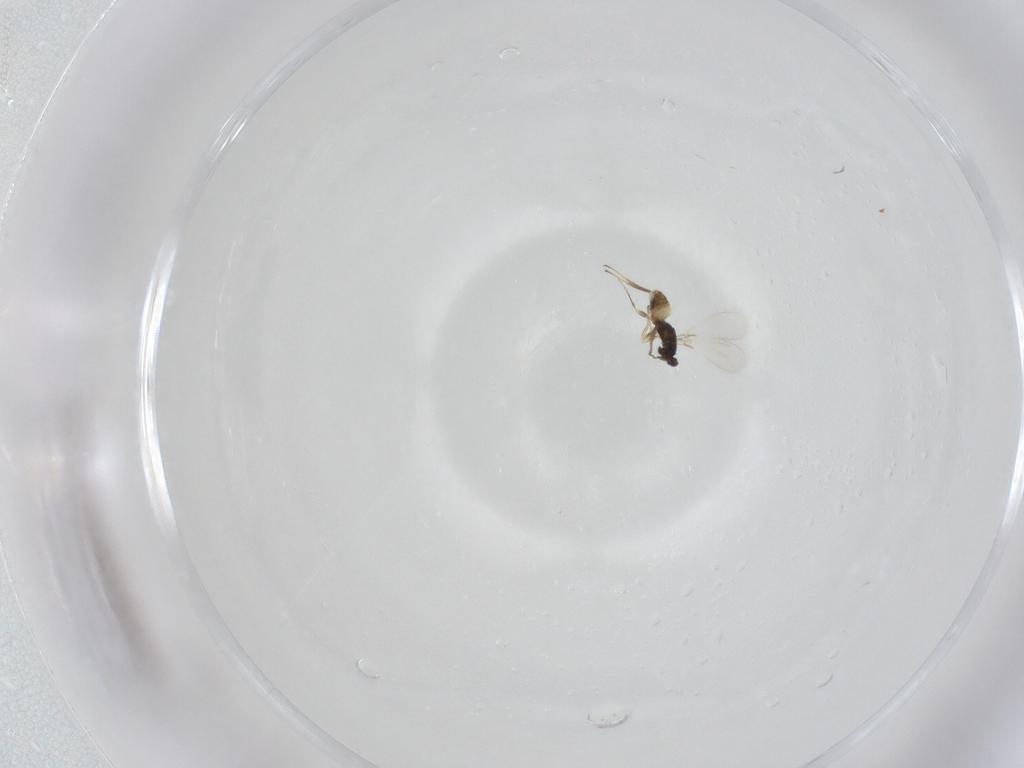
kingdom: Animalia
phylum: Arthropoda
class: Insecta
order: Hymenoptera
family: Mymaridae
